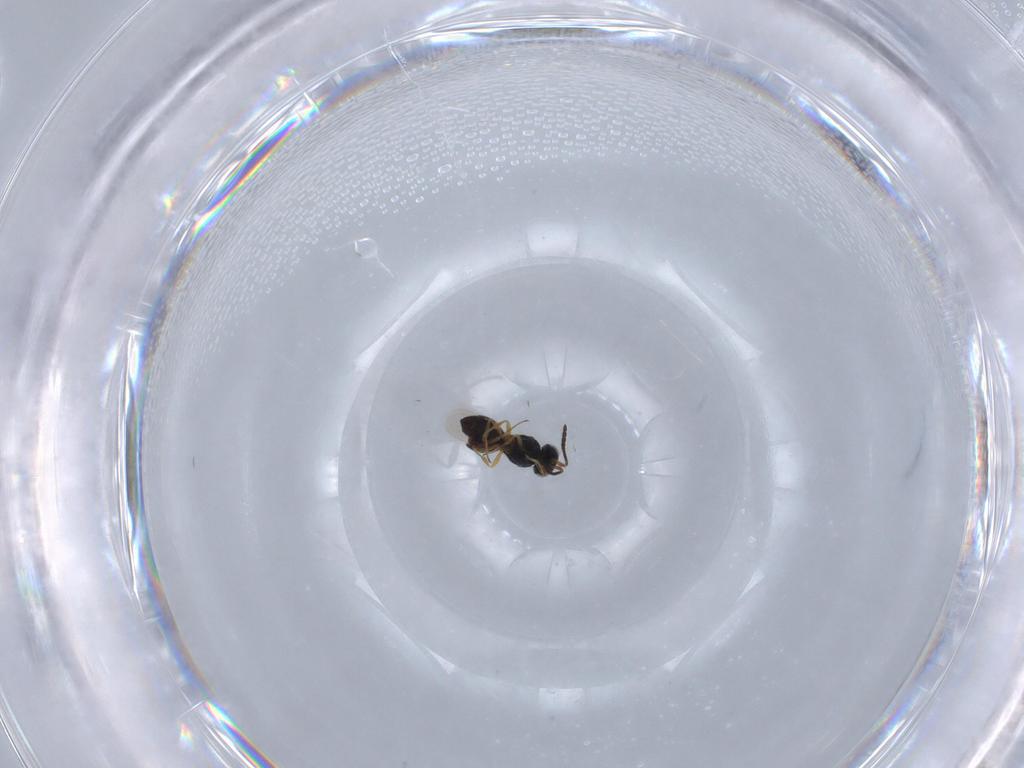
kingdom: Animalia
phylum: Arthropoda
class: Insecta
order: Hymenoptera
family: Scelionidae
